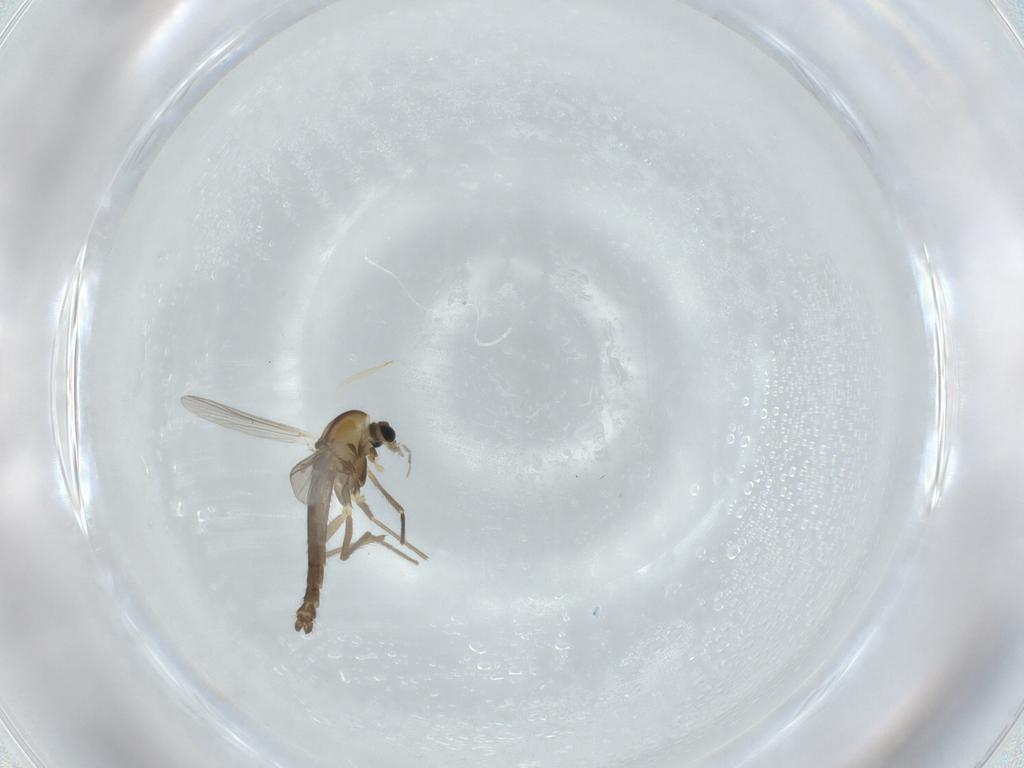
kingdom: Animalia
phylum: Arthropoda
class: Insecta
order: Diptera
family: Chironomidae
